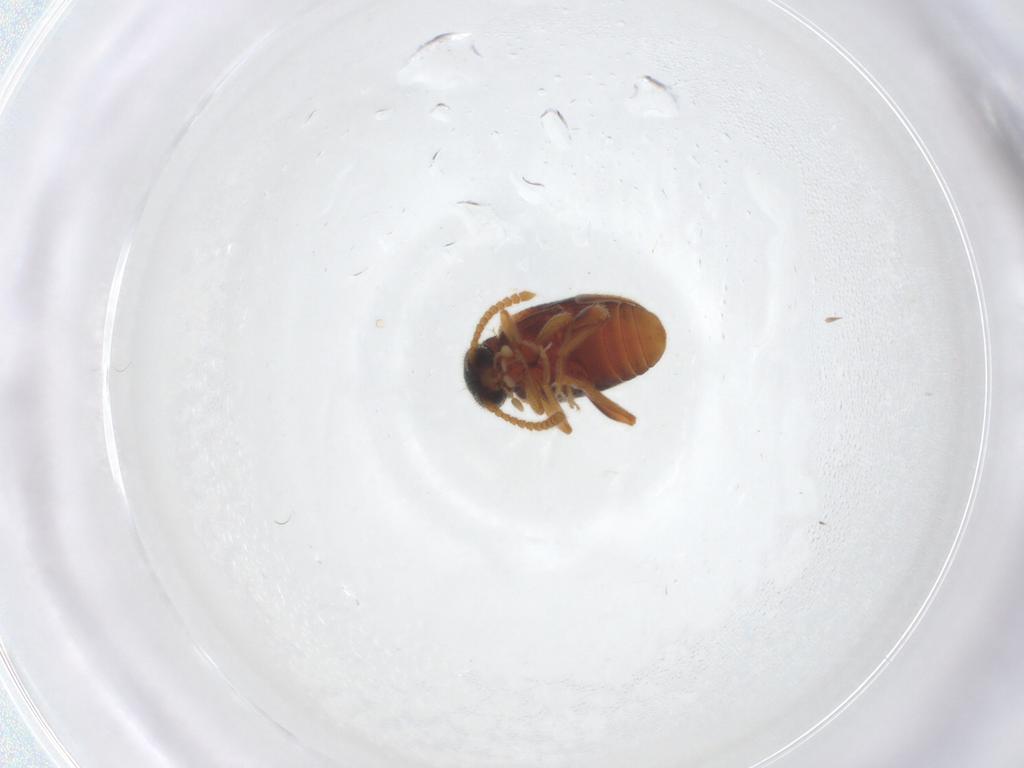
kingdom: Animalia
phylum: Arthropoda
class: Insecta
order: Coleoptera
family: Aderidae
